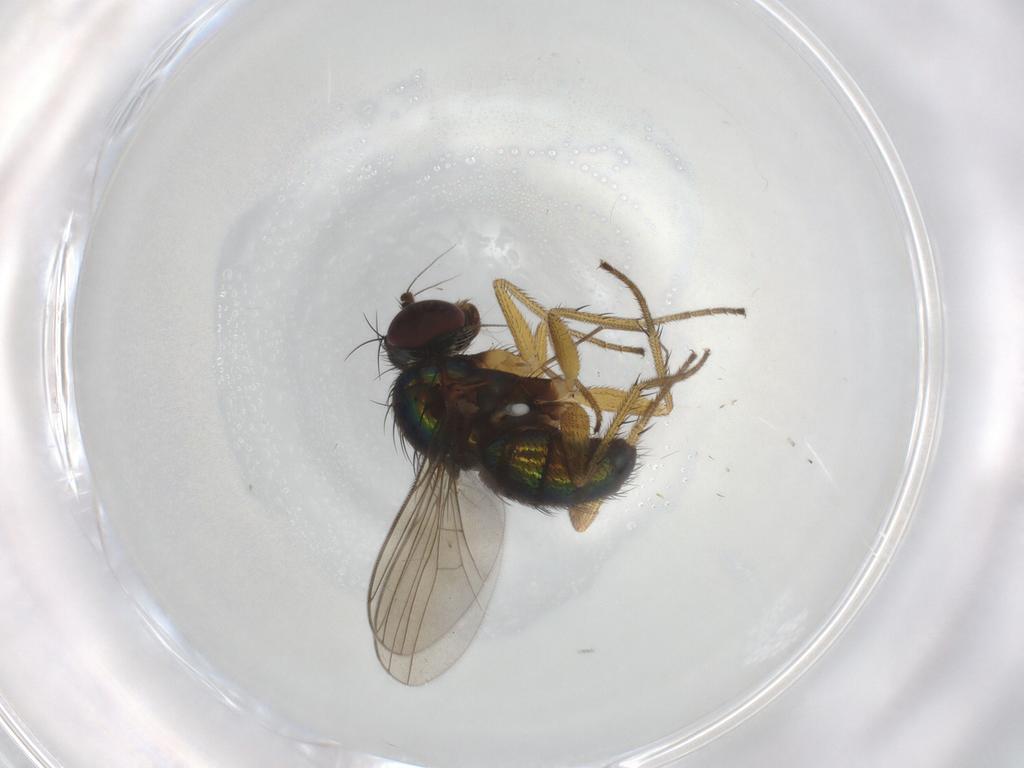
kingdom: Animalia
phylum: Arthropoda
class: Insecta
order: Diptera
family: Dolichopodidae
